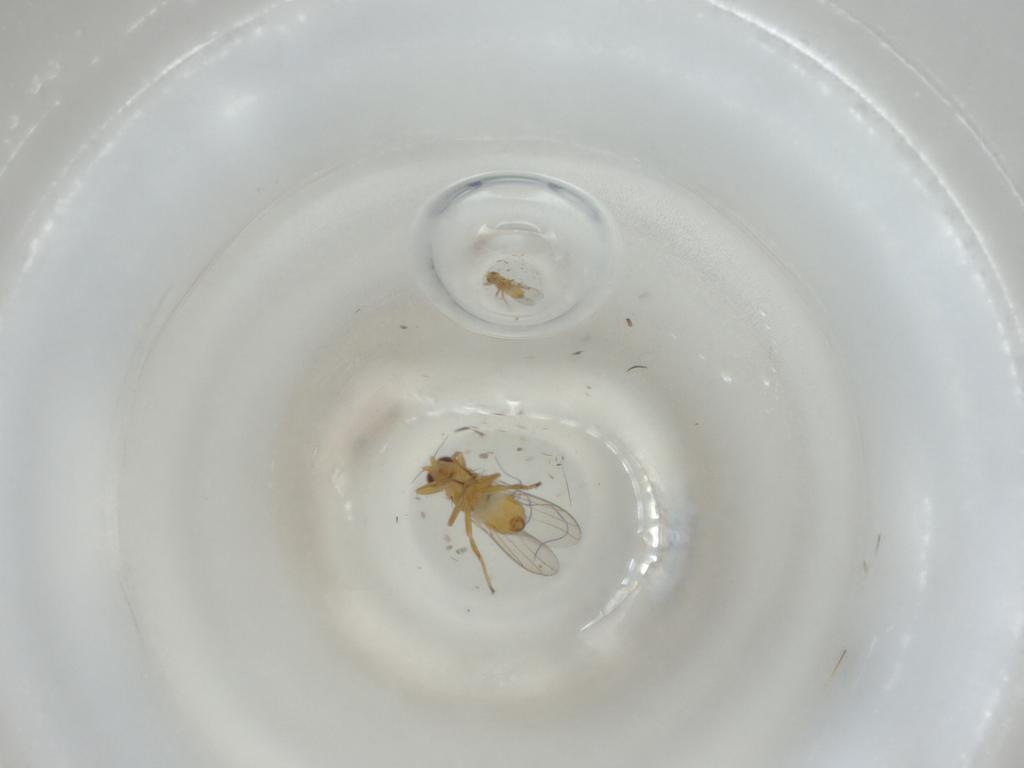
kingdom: Animalia
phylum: Arthropoda
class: Insecta
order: Diptera
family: Chloropidae
